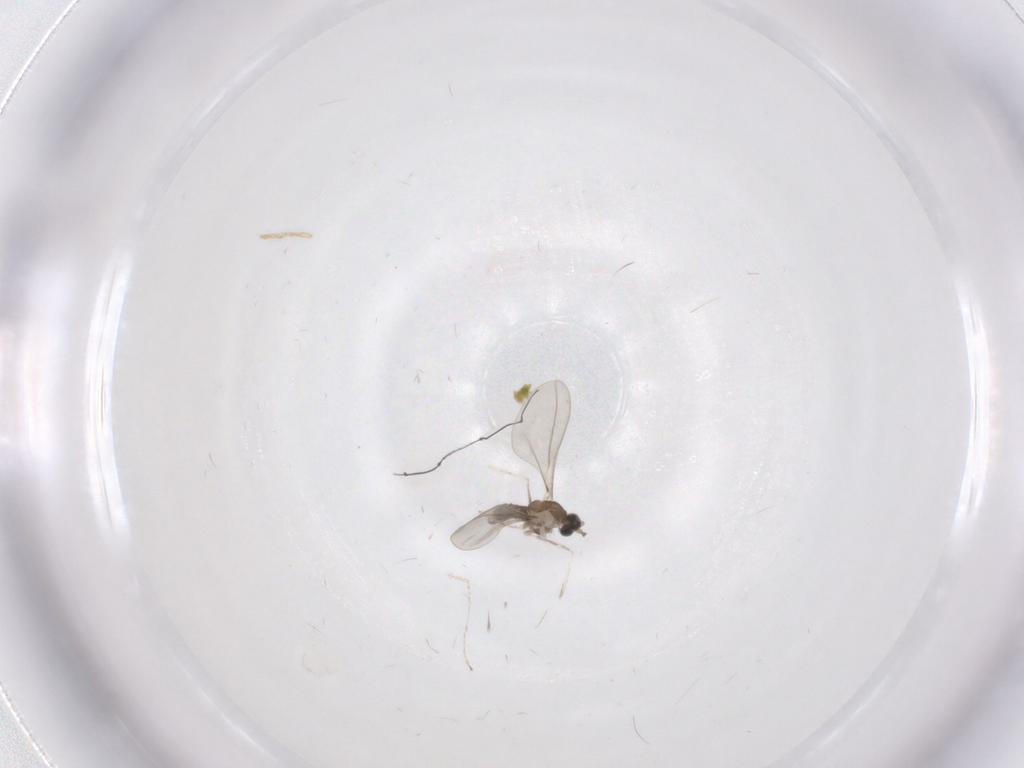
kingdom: Animalia
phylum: Arthropoda
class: Insecta
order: Diptera
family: Cecidomyiidae
